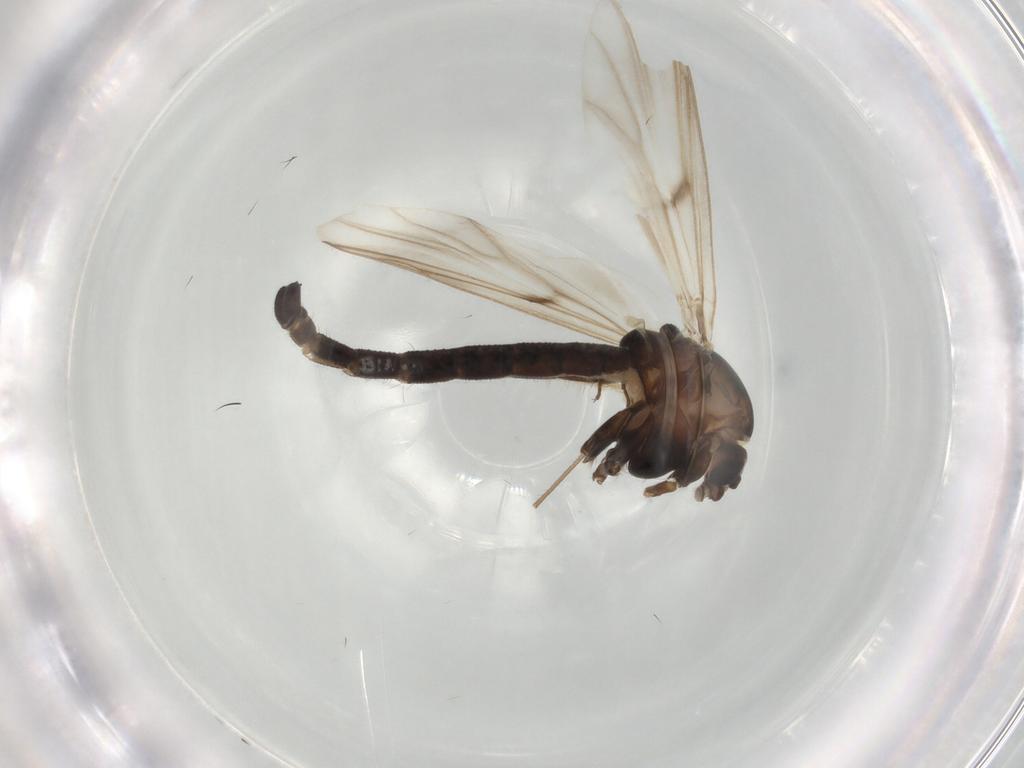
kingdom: Animalia
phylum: Arthropoda
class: Insecta
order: Diptera
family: Chironomidae
